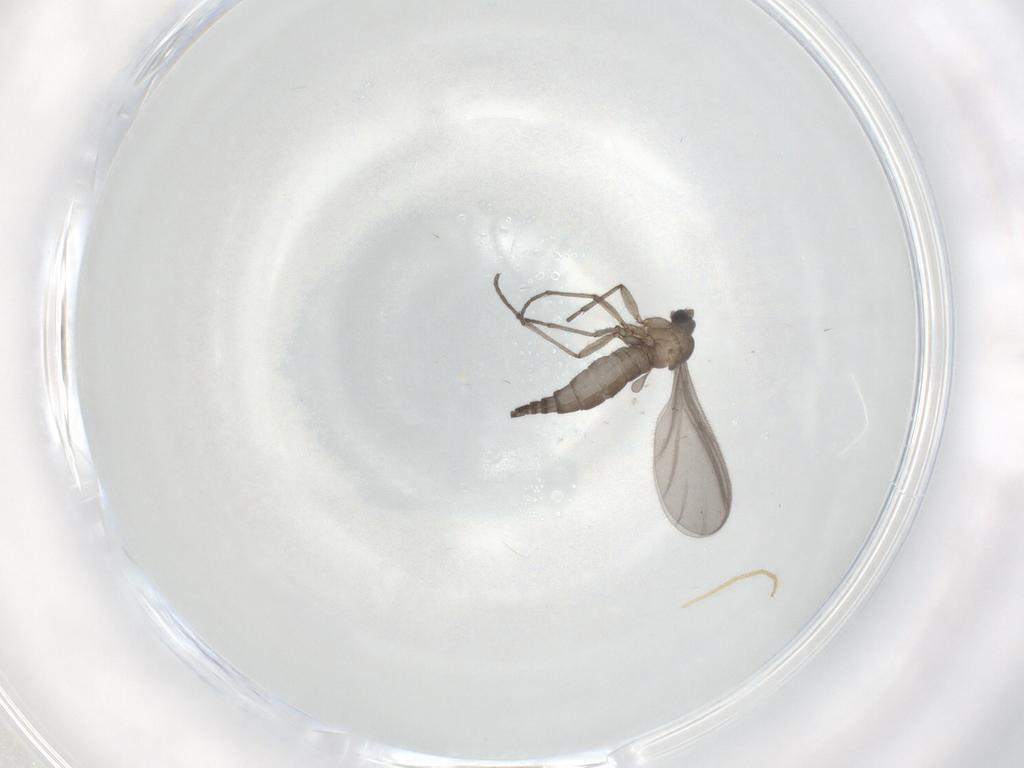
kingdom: Animalia
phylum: Arthropoda
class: Insecta
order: Diptera
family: Sciaridae
